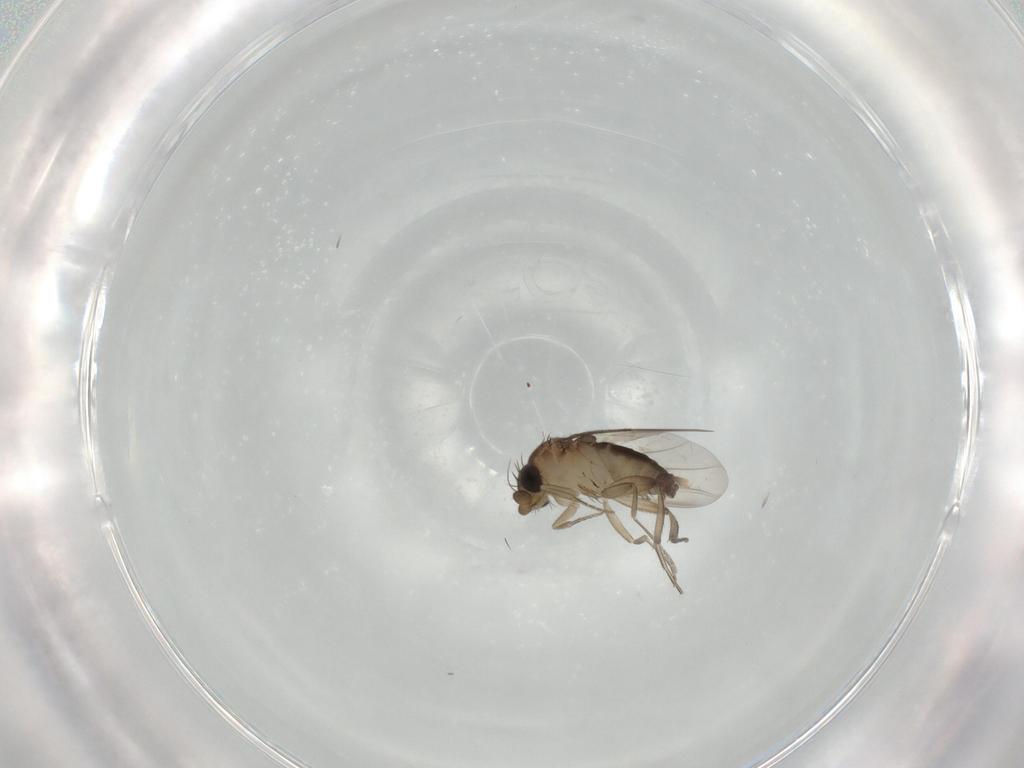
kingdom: Animalia
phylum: Arthropoda
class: Insecta
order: Diptera
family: Phoridae
